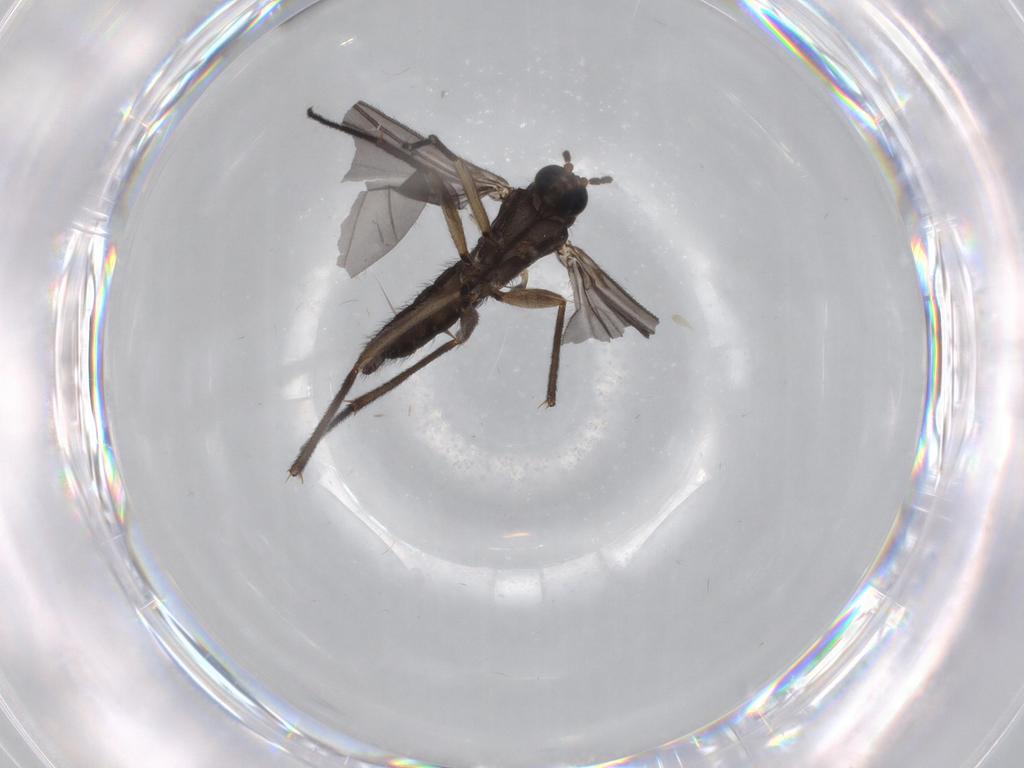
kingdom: Animalia
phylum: Arthropoda
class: Insecta
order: Diptera
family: Sciaridae
